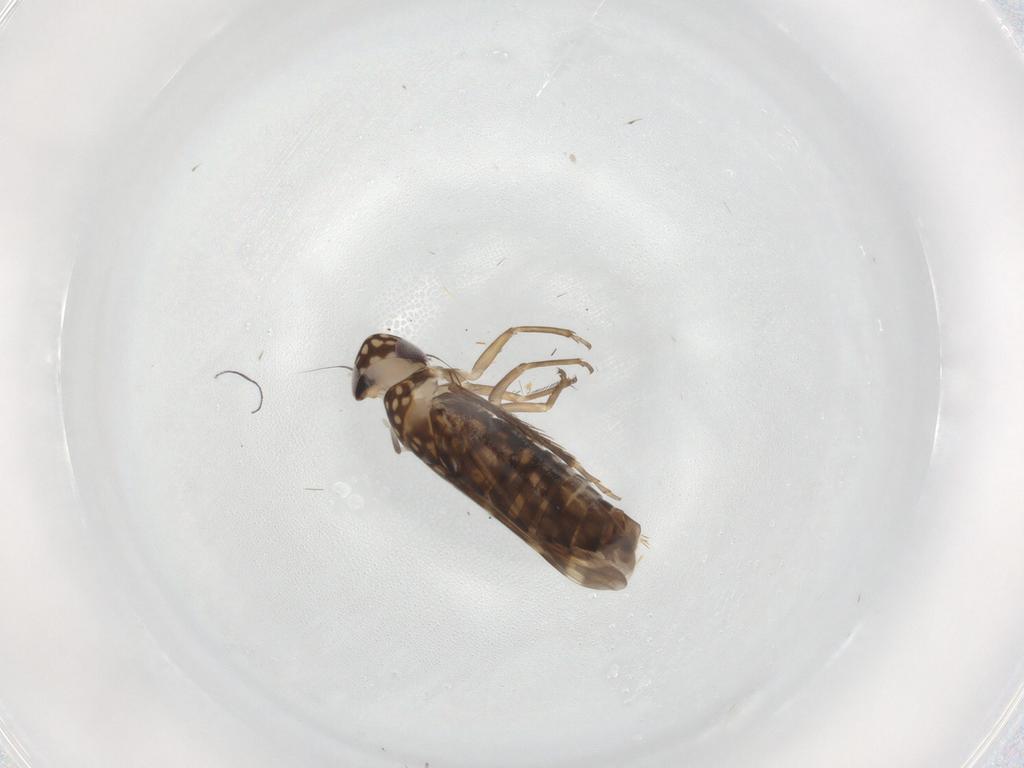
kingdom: Animalia
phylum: Arthropoda
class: Insecta
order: Hemiptera
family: Cicadellidae
